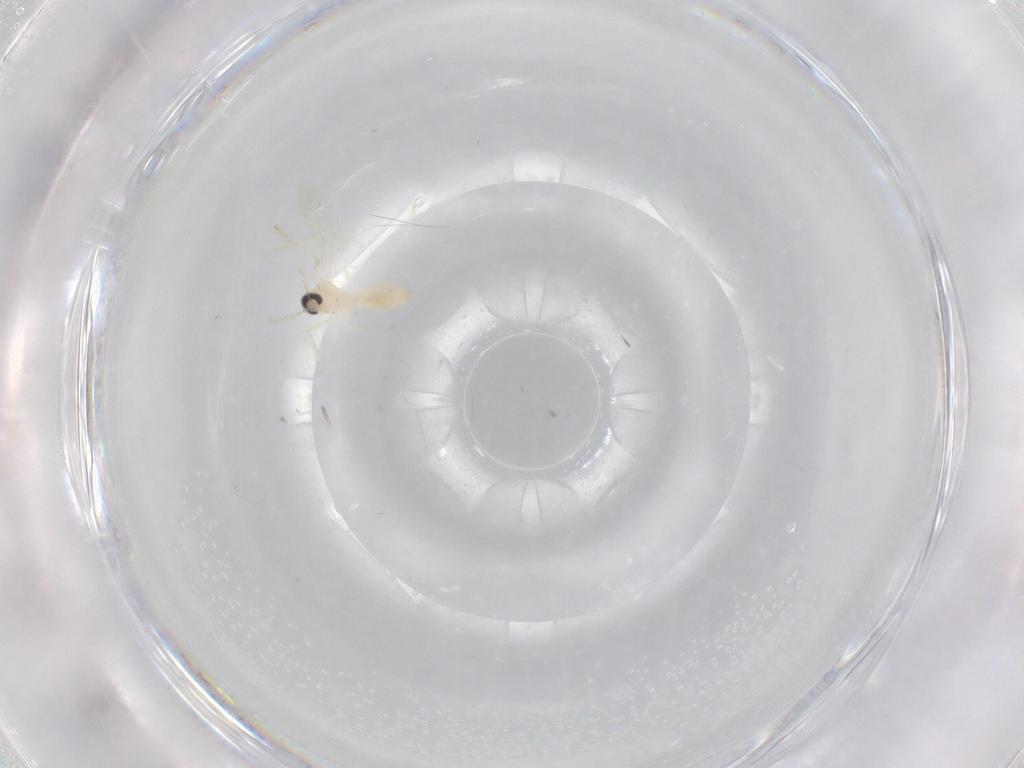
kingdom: Animalia
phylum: Arthropoda
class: Insecta
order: Diptera
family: Cecidomyiidae
